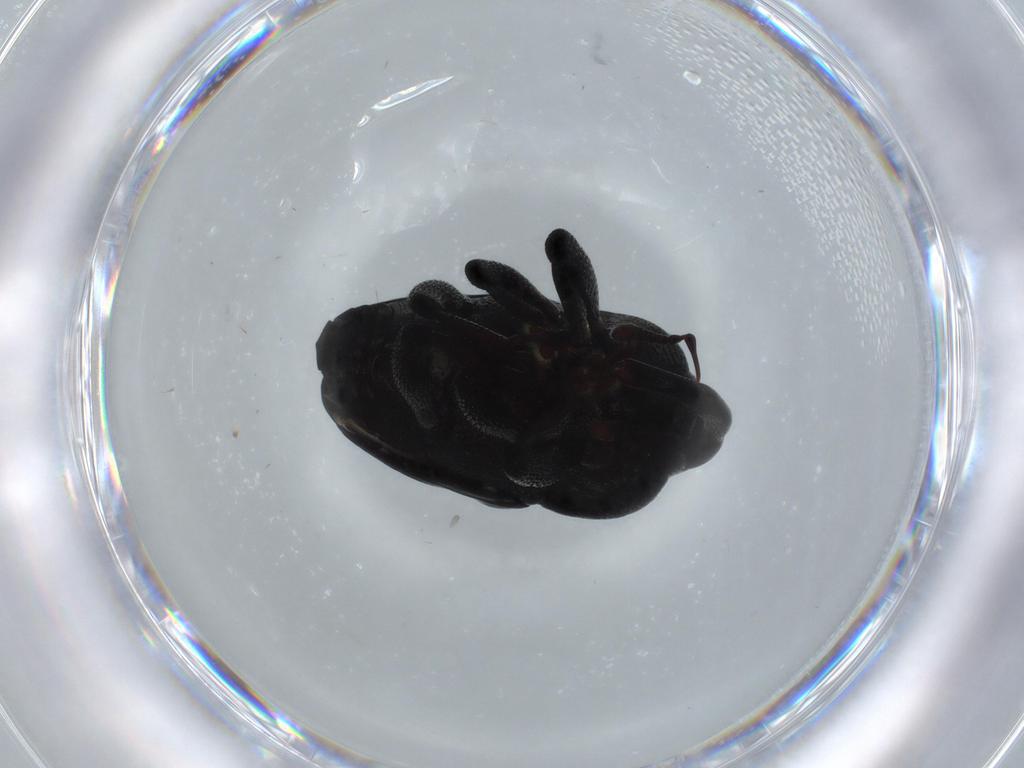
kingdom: Animalia
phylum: Arthropoda
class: Insecta
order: Coleoptera
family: Curculionidae
